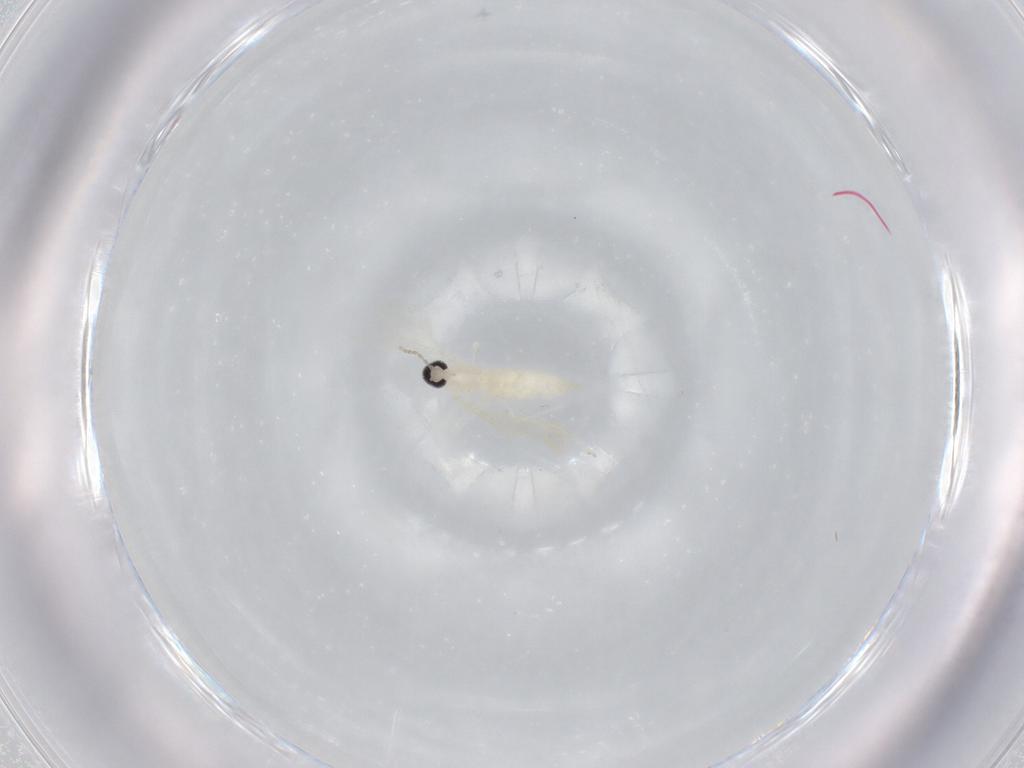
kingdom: Animalia
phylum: Arthropoda
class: Insecta
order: Diptera
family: Cecidomyiidae
